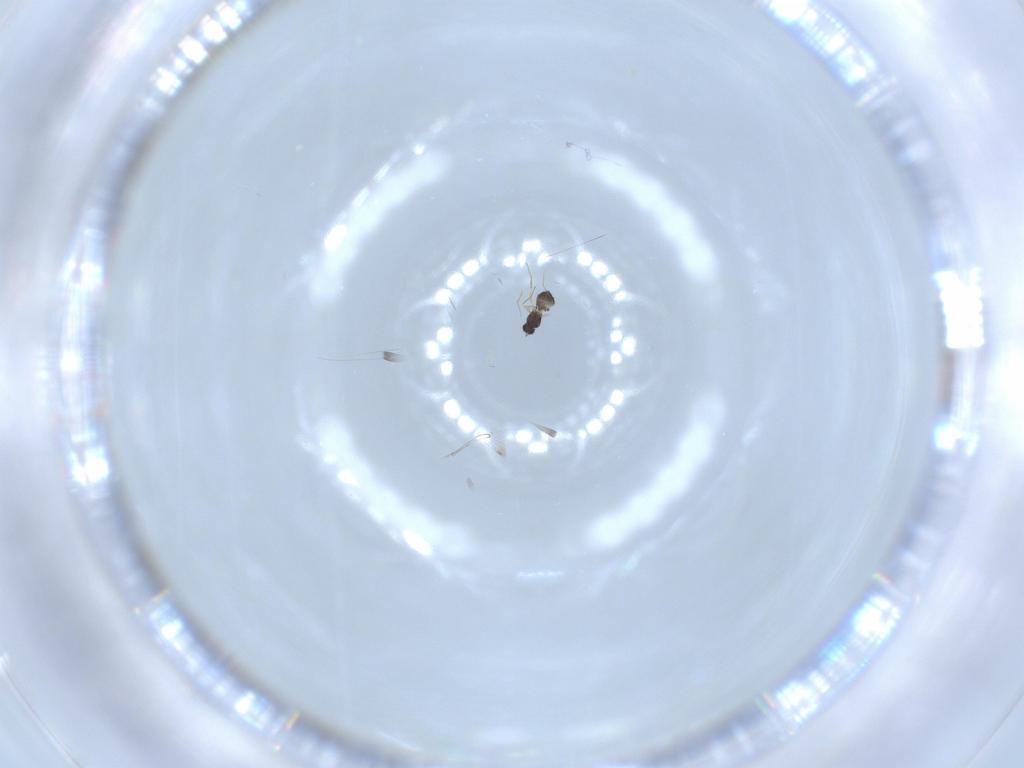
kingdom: Animalia
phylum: Arthropoda
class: Insecta
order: Hymenoptera
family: Mymaridae
